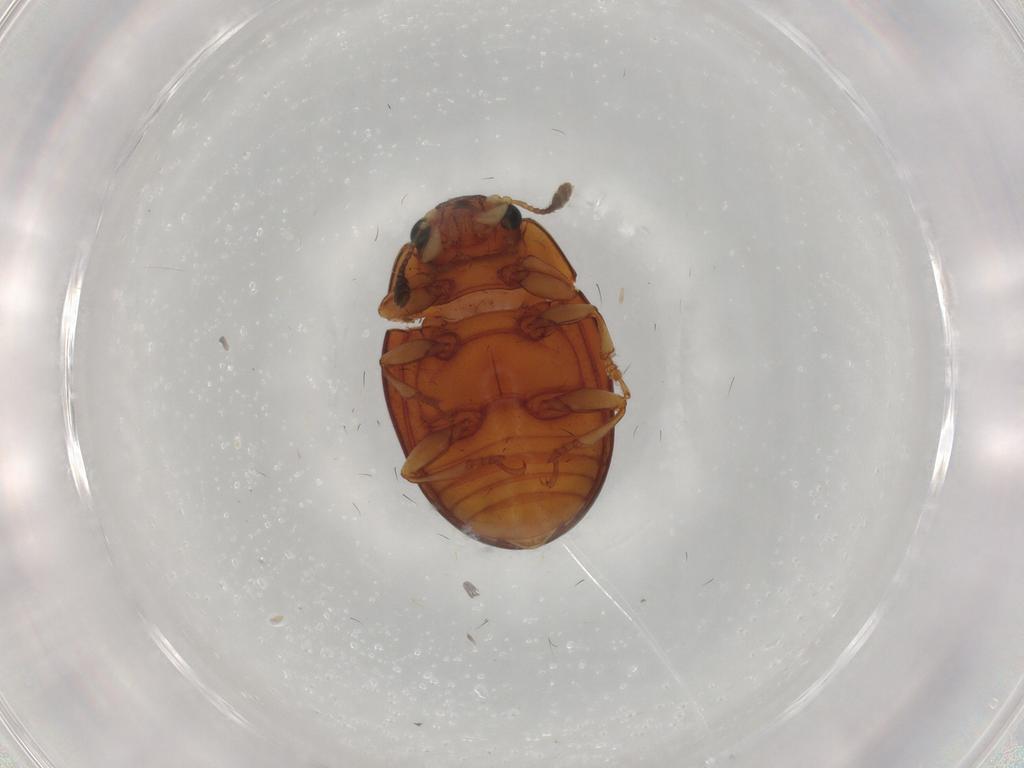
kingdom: Animalia
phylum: Arthropoda
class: Insecta
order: Coleoptera
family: Erotylidae
